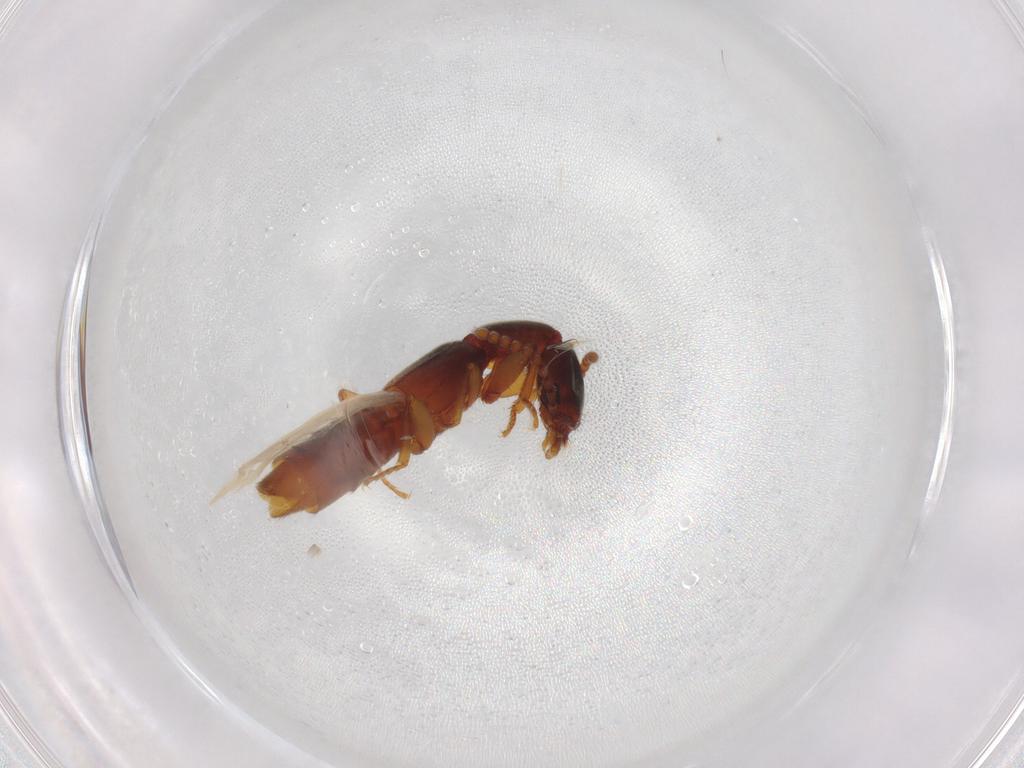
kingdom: Animalia
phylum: Arthropoda
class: Insecta
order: Coleoptera
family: Staphylinidae
